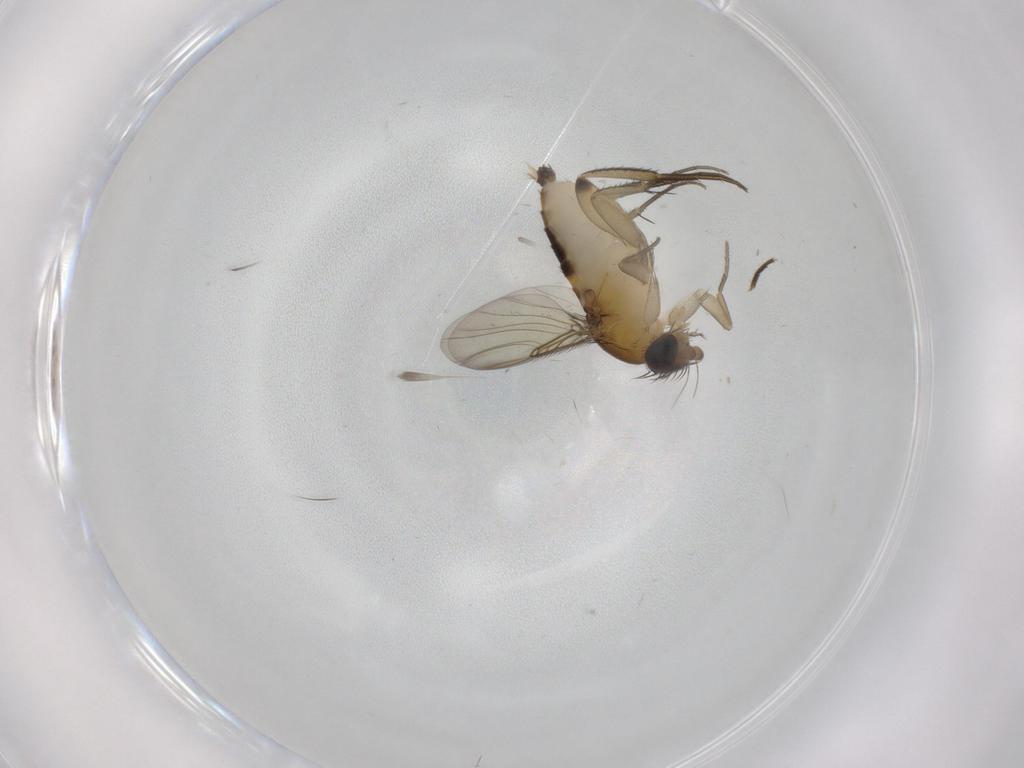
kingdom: Animalia
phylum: Arthropoda
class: Insecta
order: Diptera
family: Phoridae
